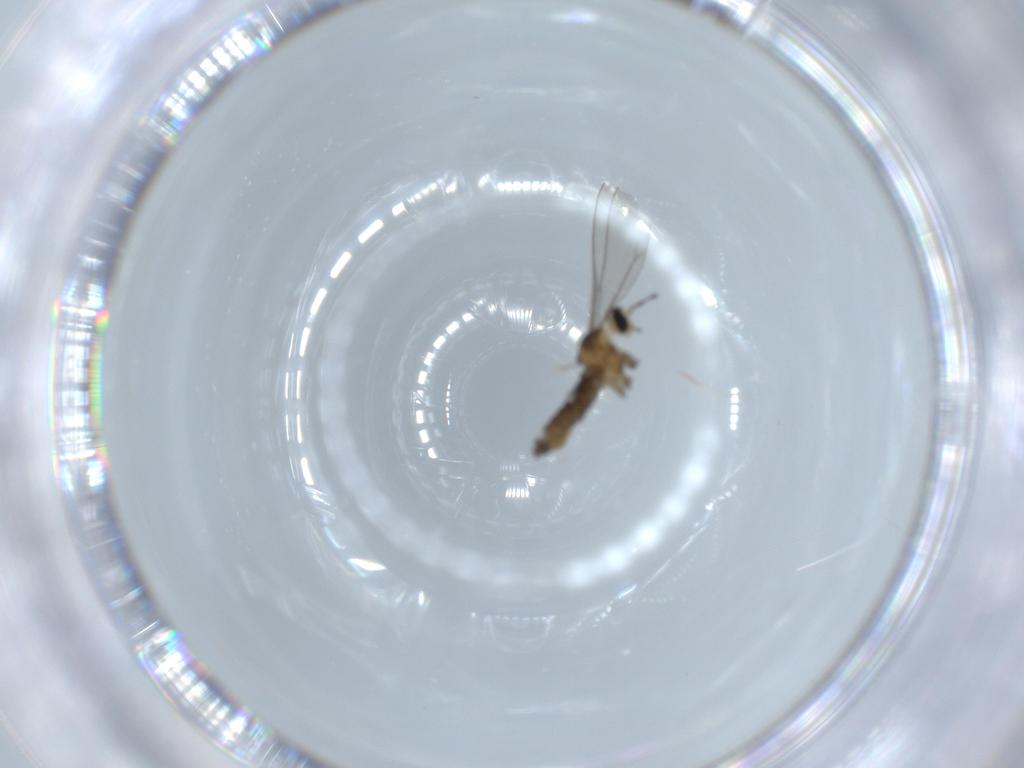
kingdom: Animalia
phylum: Arthropoda
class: Insecta
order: Diptera
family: Cecidomyiidae
